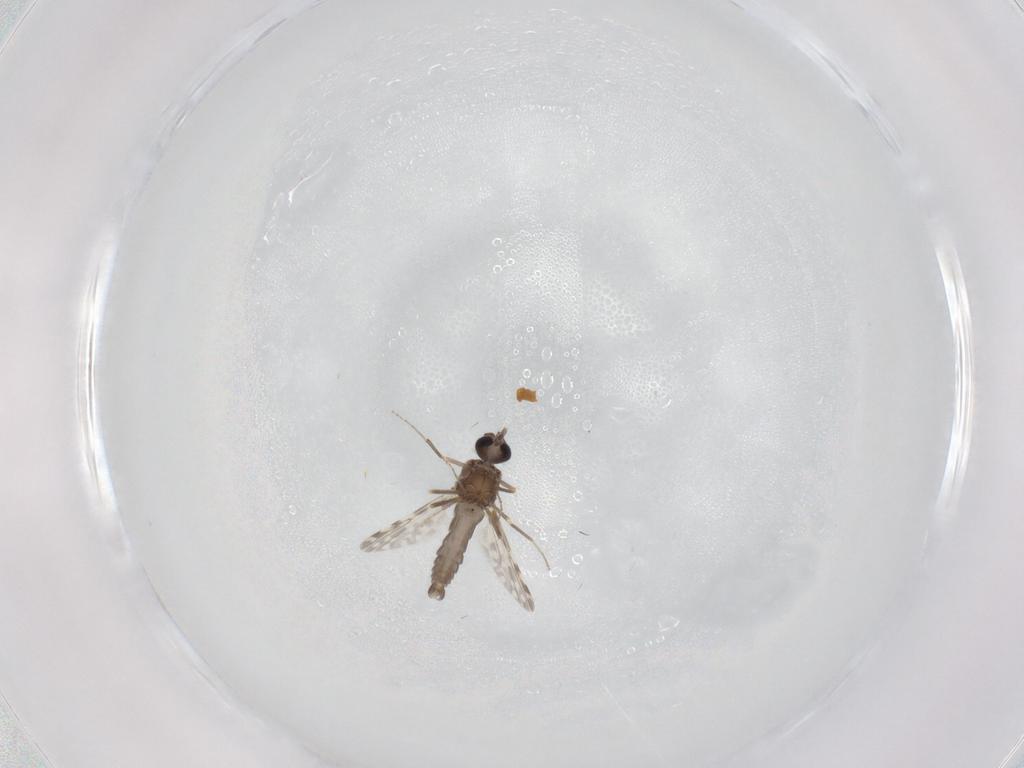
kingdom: Animalia
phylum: Arthropoda
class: Insecta
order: Diptera
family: Ceratopogonidae
